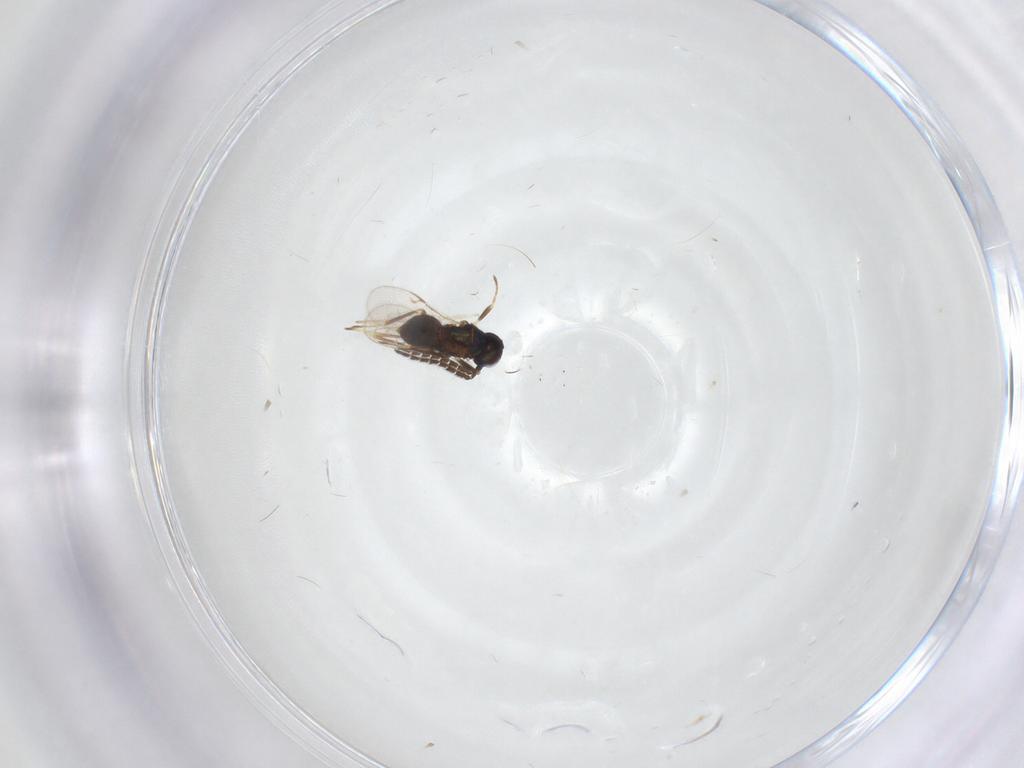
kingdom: Animalia
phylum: Arthropoda
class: Insecta
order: Hymenoptera
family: Encyrtidae
